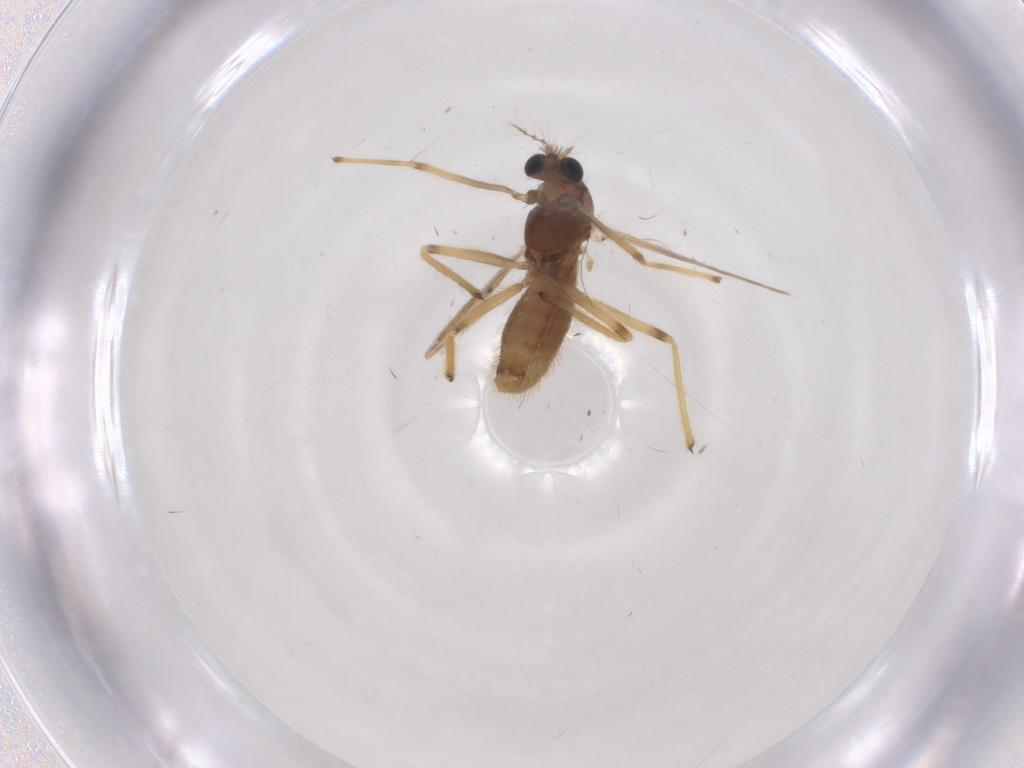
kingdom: Animalia
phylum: Arthropoda
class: Insecta
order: Diptera
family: Chironomidae
